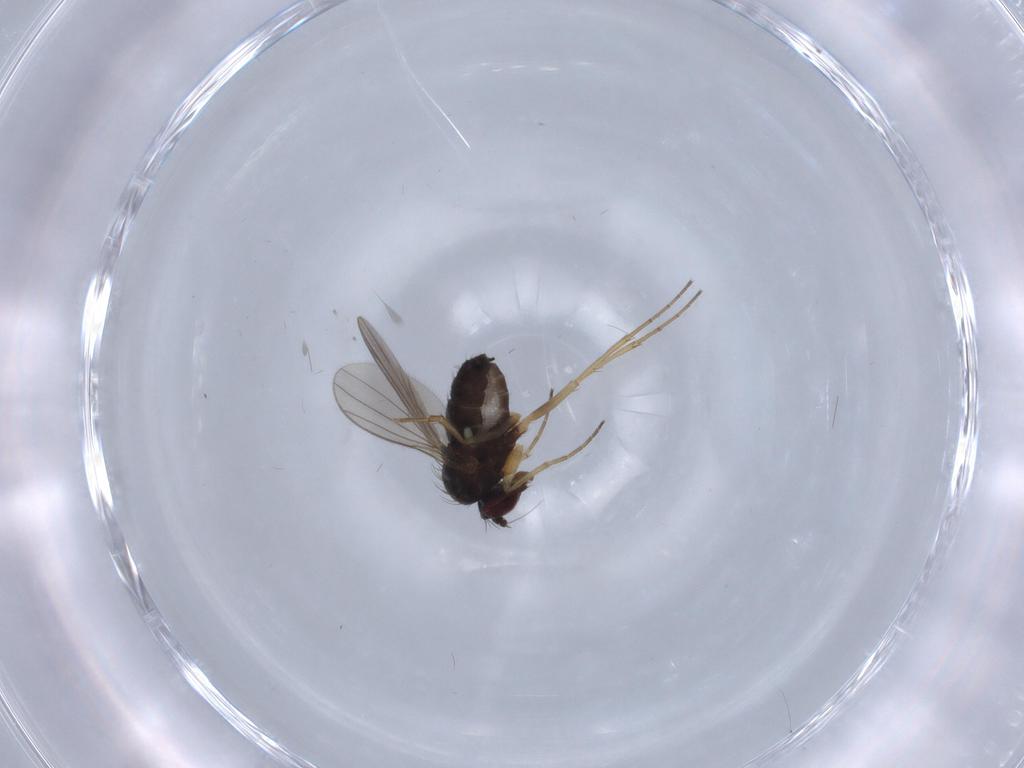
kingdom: Animalia
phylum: Arthropoda
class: Insecta
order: Diptera
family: Dolichopodidae
